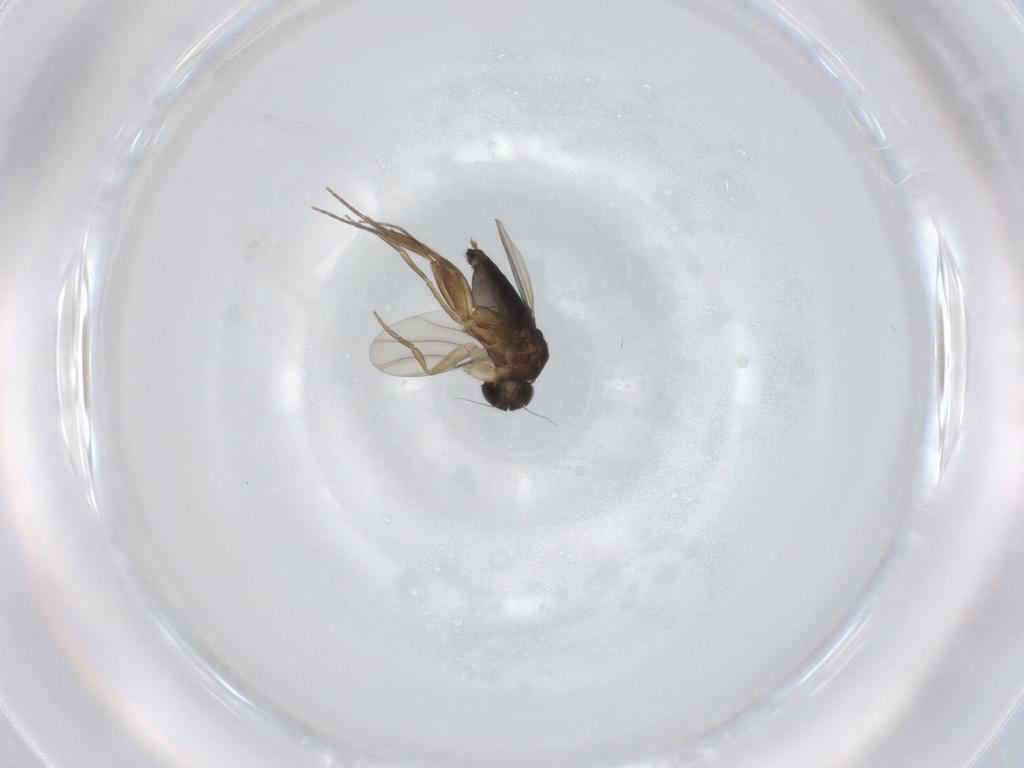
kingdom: Animalia
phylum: Arthropoda
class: Insecta
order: Diptera
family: Phoridae
